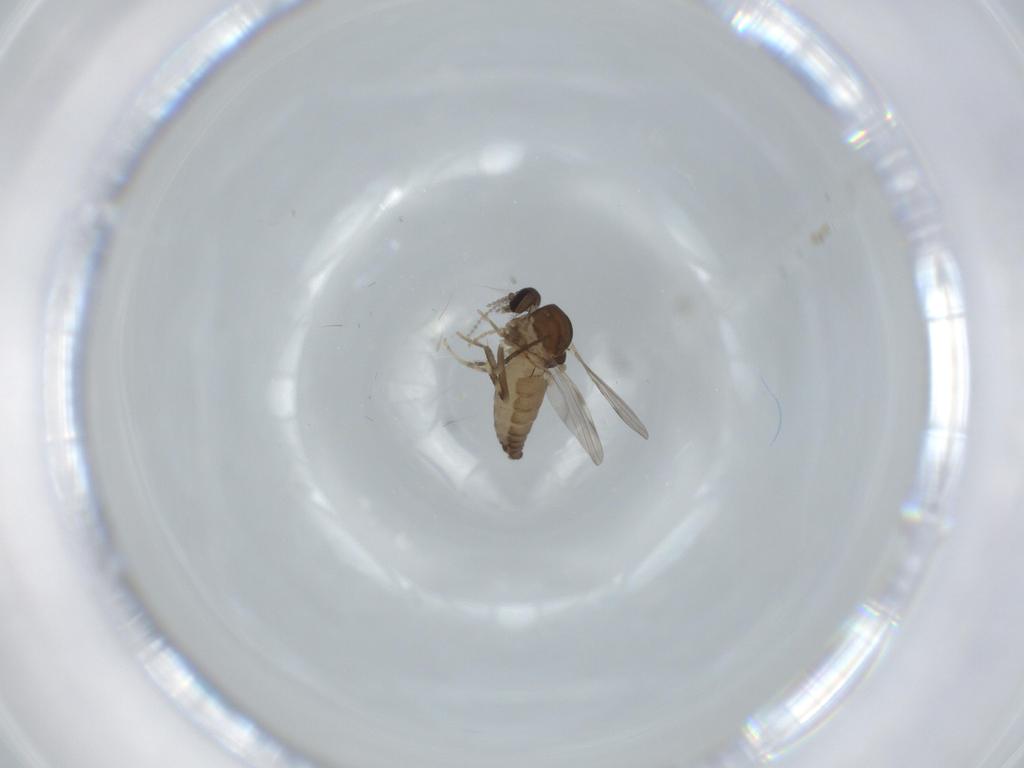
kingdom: Animalia
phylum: Arthropoda
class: Insecta
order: Diptera
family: Ceratopogonidae
